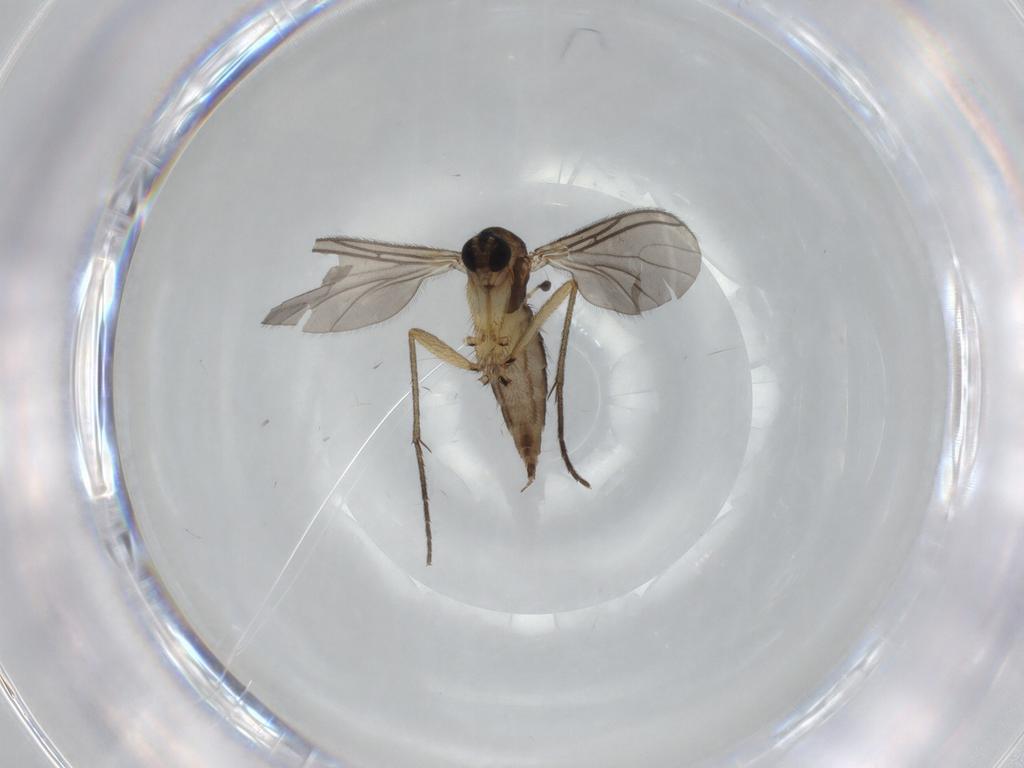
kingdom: Animalia
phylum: Arthropoda
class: Insecta
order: Diptera
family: Sciaridae
